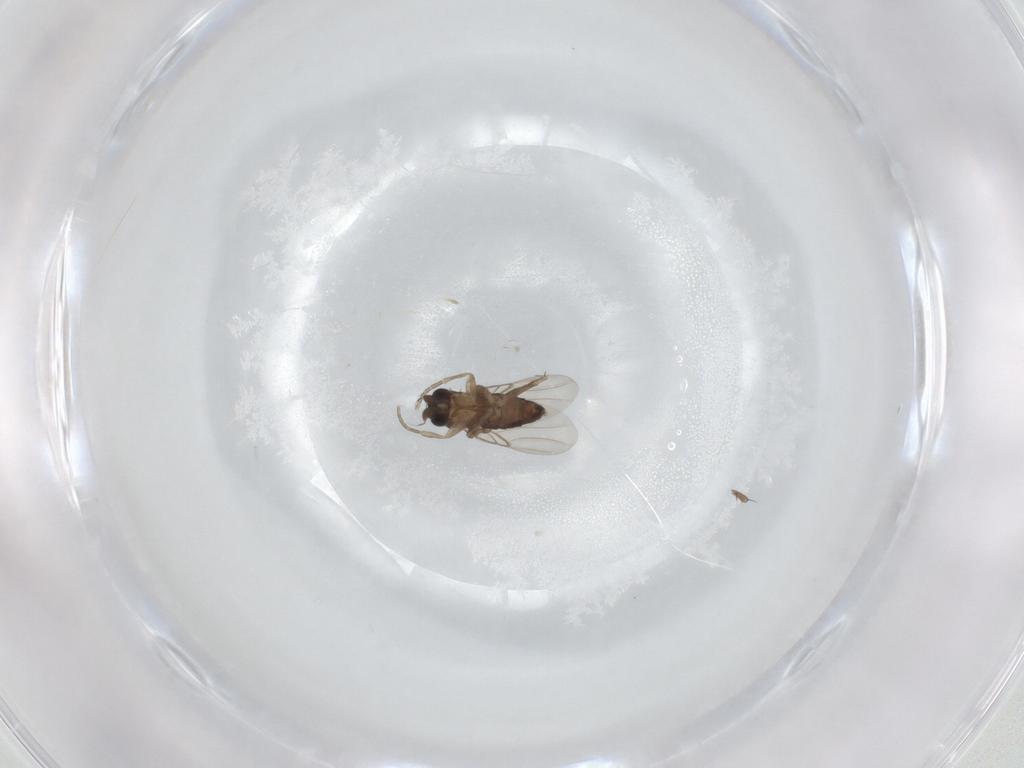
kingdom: Animalia
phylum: Arthropoda
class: Insecta
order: Diptera
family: Phoridae
